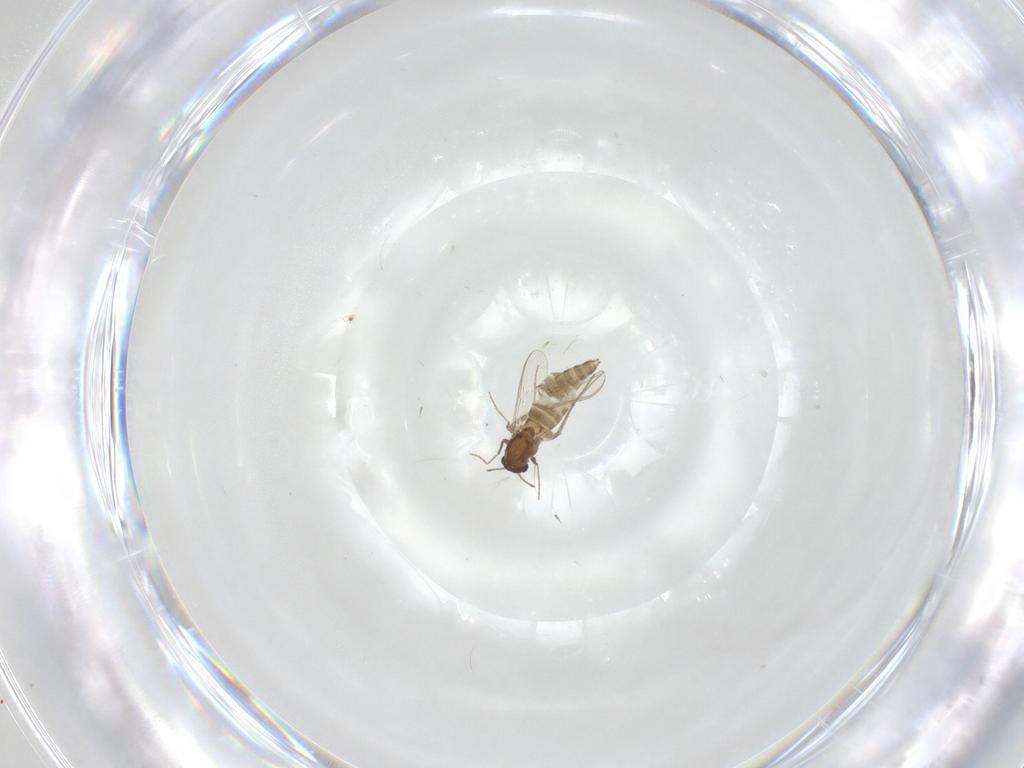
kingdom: Animalia
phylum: Arthropoda
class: Insecta
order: Diptera
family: Chironomidae
